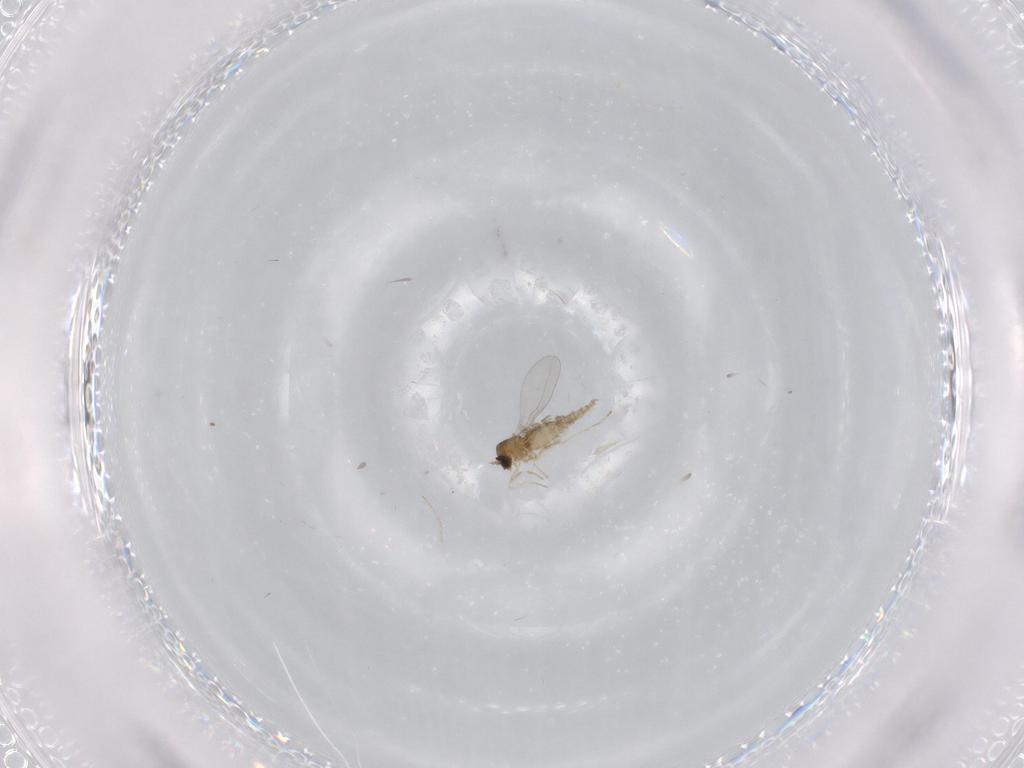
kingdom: Animalia
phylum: Arthropoda
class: Insecta
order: Diptera
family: Cecidomyiidae
